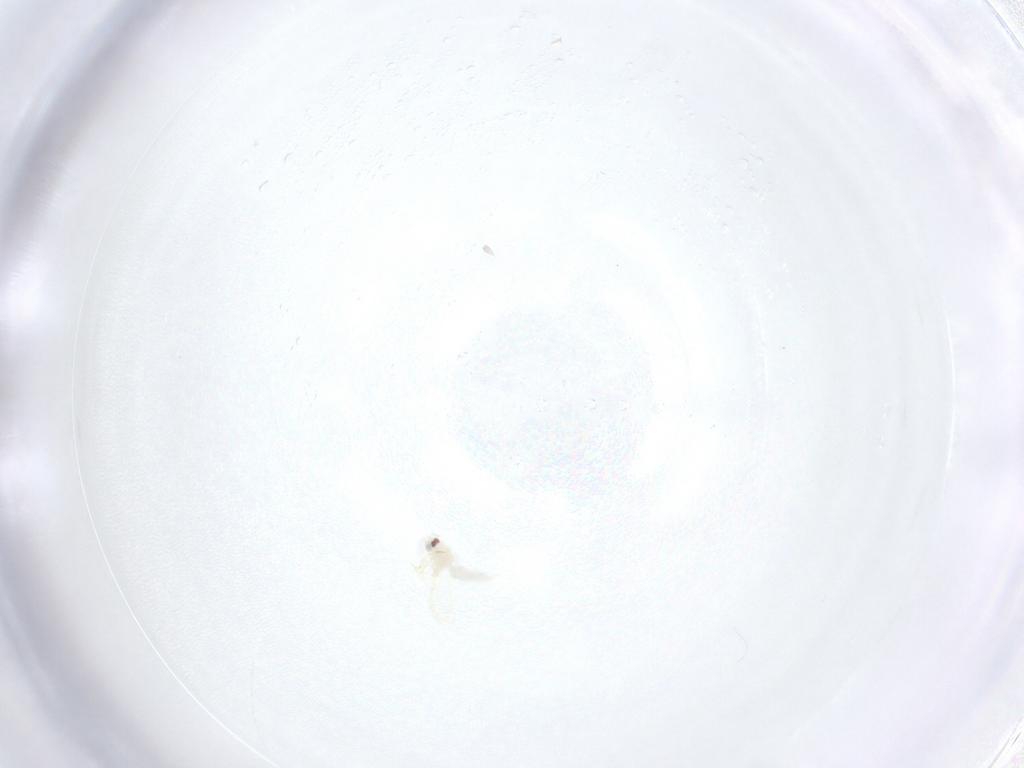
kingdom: Animalia
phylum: Arthropoda
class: Insecta
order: Hemiptera
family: Aleyrodidae
